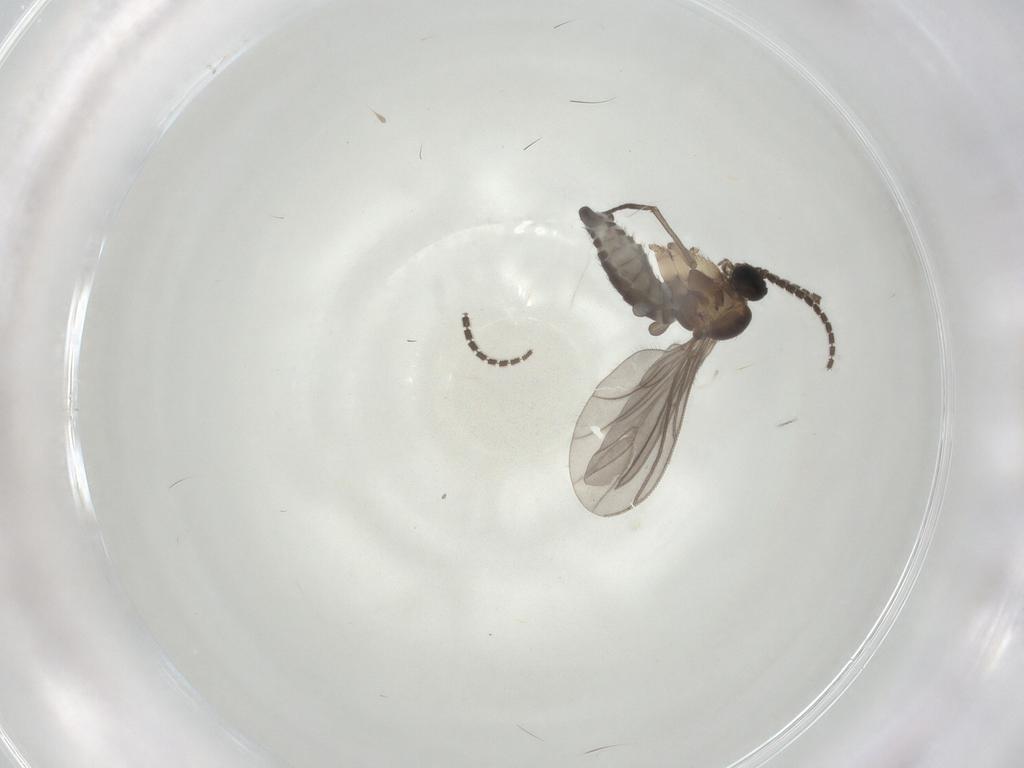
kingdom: Animalia
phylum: Arthropoda
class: Insecta
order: Diptera
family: Sciaridae
